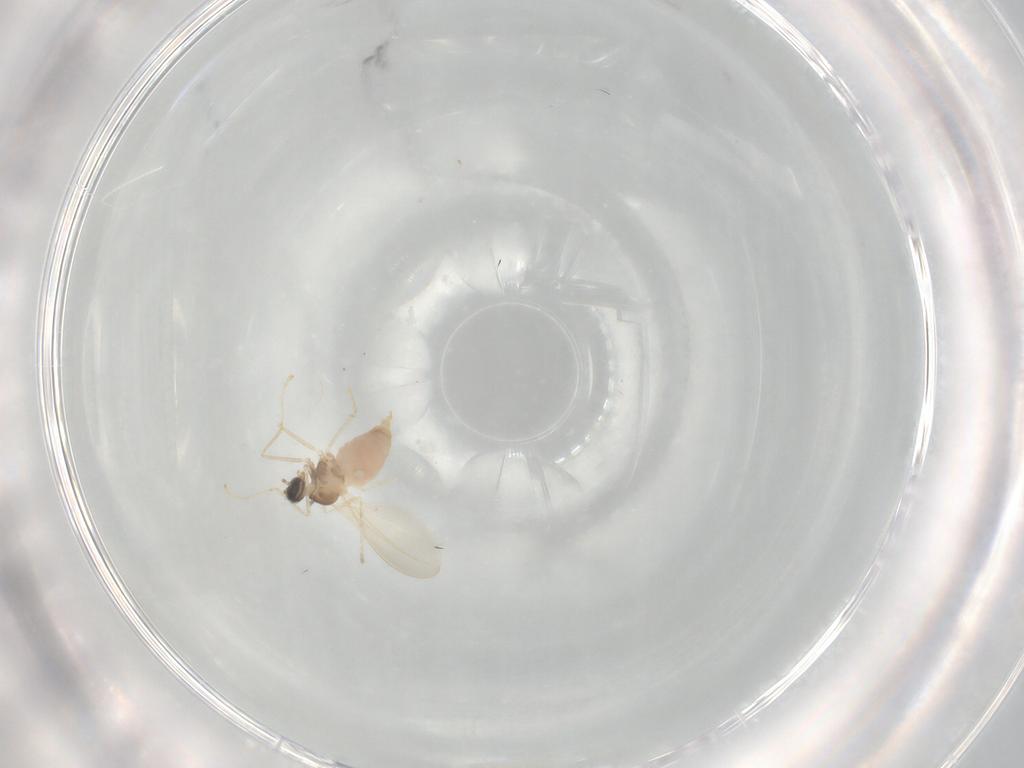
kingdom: Animalia
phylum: Arthropoda
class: Insecta
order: Diptera
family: Cecidomyiidae
